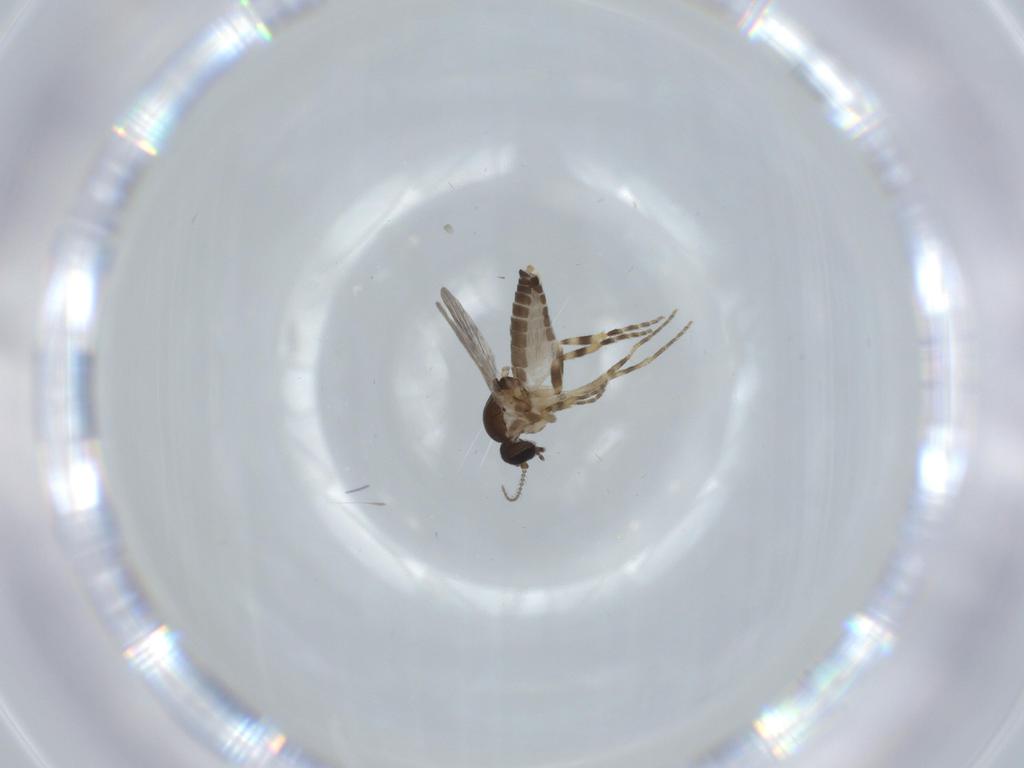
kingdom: Animalia
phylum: Arthropoda
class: Insecta
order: Diptera
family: Ceratopogonidae
